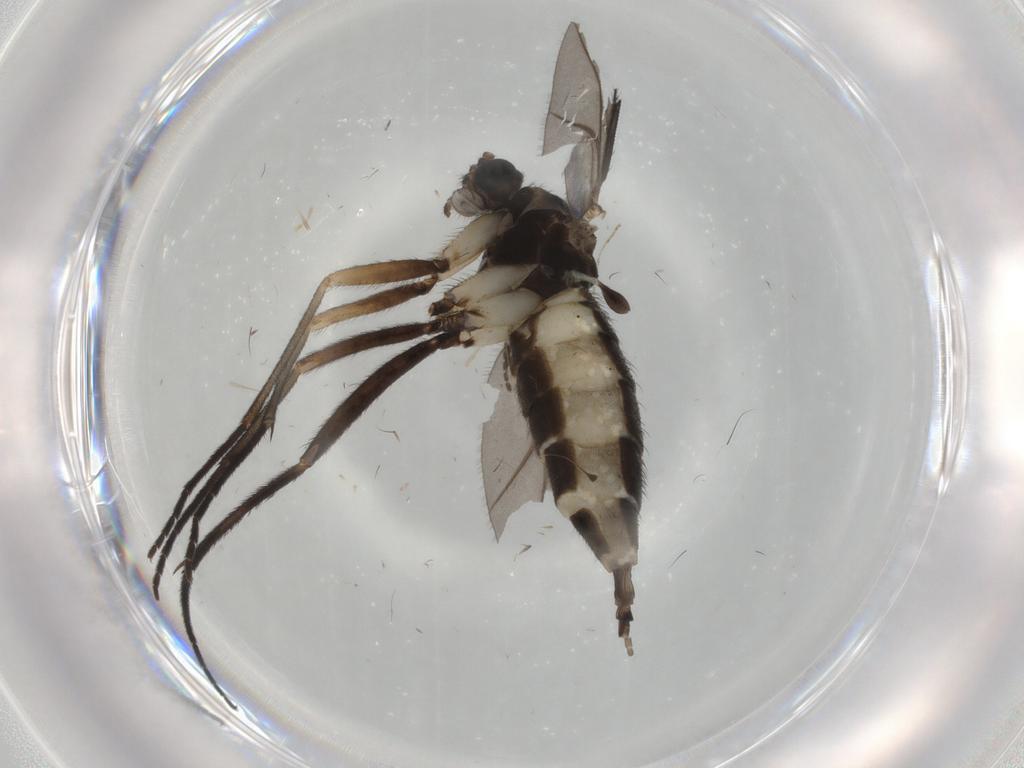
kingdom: Animalia
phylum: Arthropoda
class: Insecta
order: Diptera
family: Sciaridae
